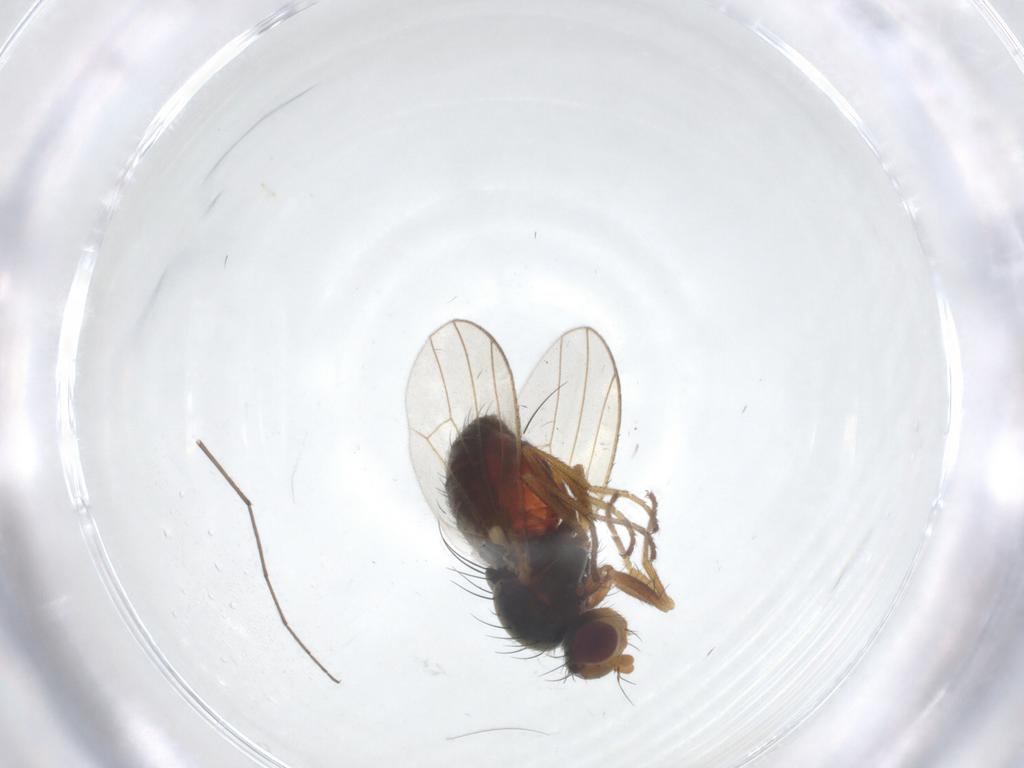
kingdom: Animalia
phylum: Arthropoda
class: Insecta
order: Diptera
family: Heleomyzidae
